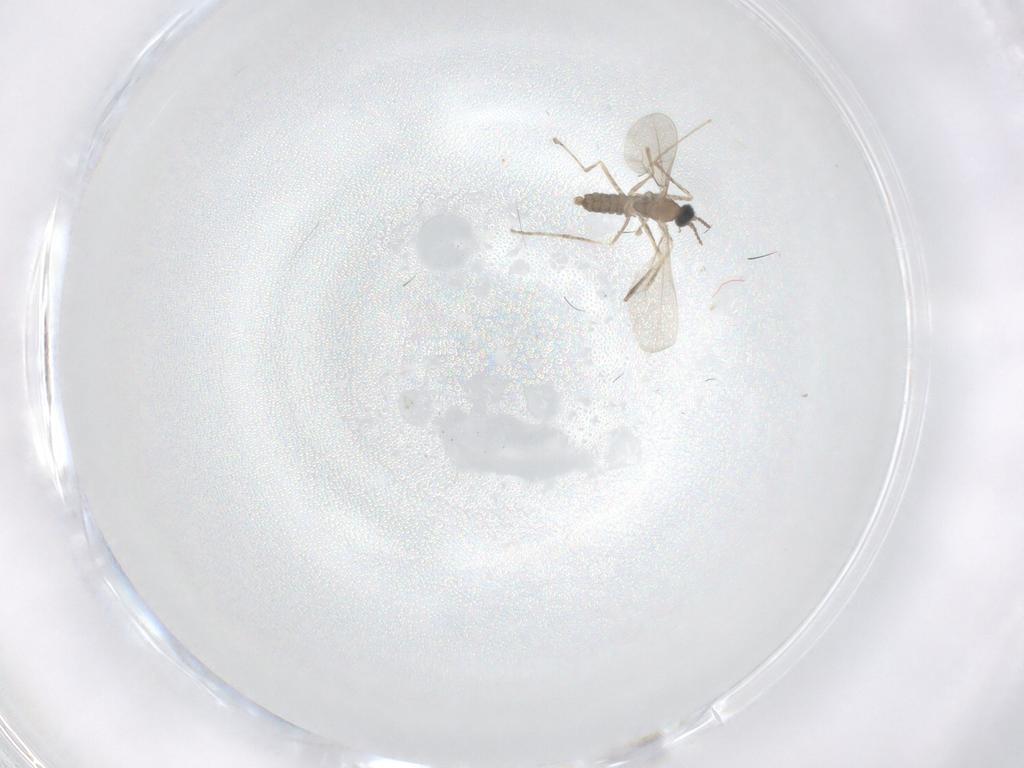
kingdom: Animalia
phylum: Arthropoda
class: Insecta
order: Diptera
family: Cecidomyiidae
